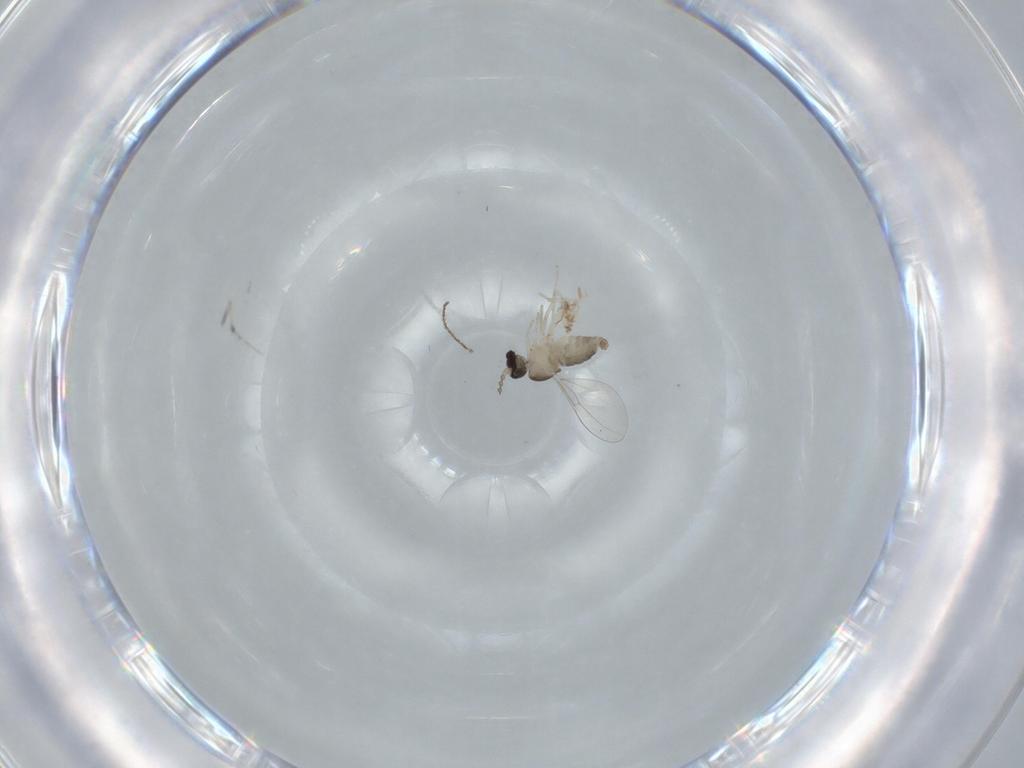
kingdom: Animalia
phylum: Arthropoda
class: Insecta
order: Diptera
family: Cecidomyiidae
